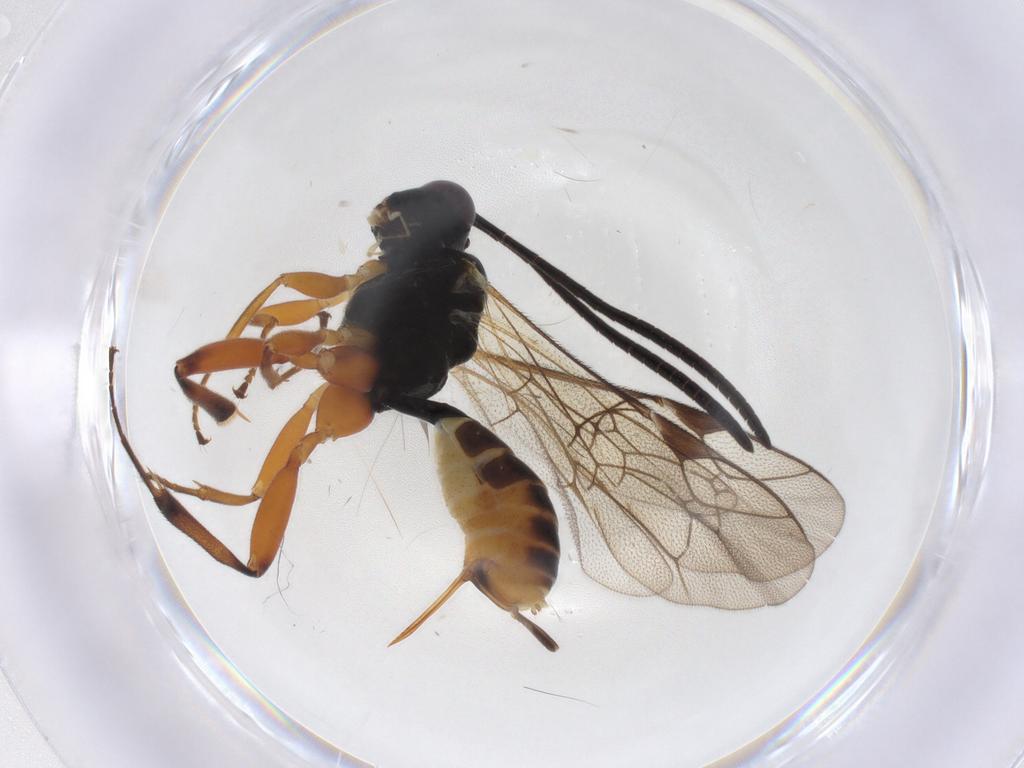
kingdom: Animalia
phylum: Arthropoda
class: Insecta
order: Hymenoptera
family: Ichneumonidae
